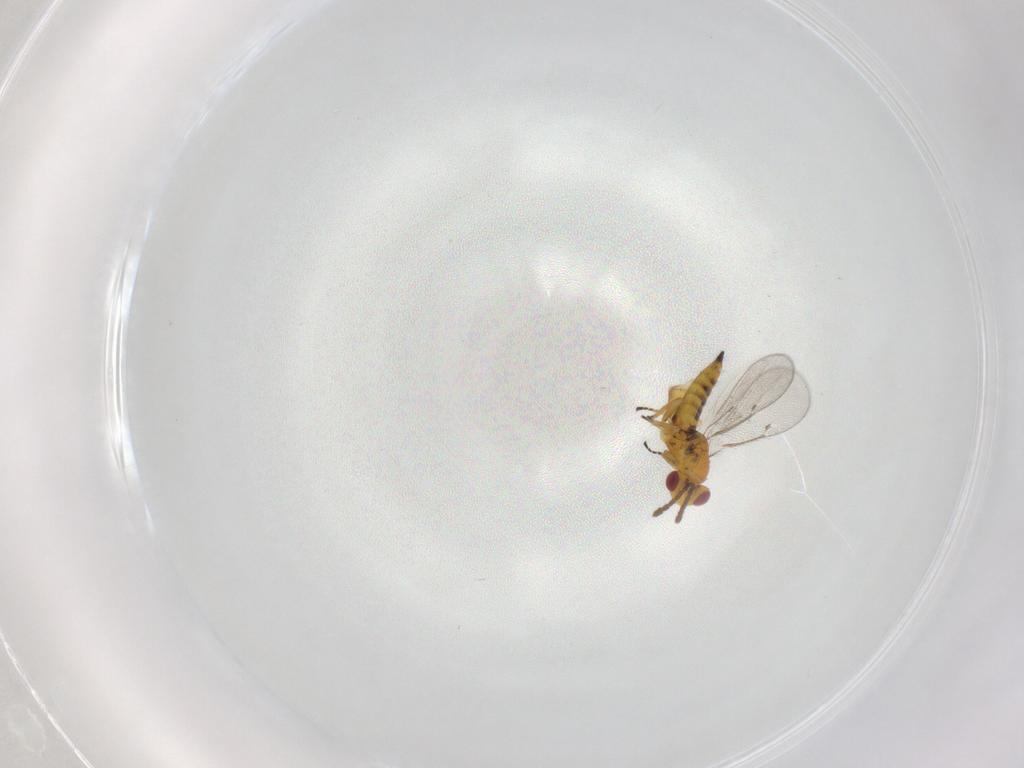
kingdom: Animalia
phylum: Arthropoda
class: Insecta
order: Hymenoptera
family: Eulophidae
